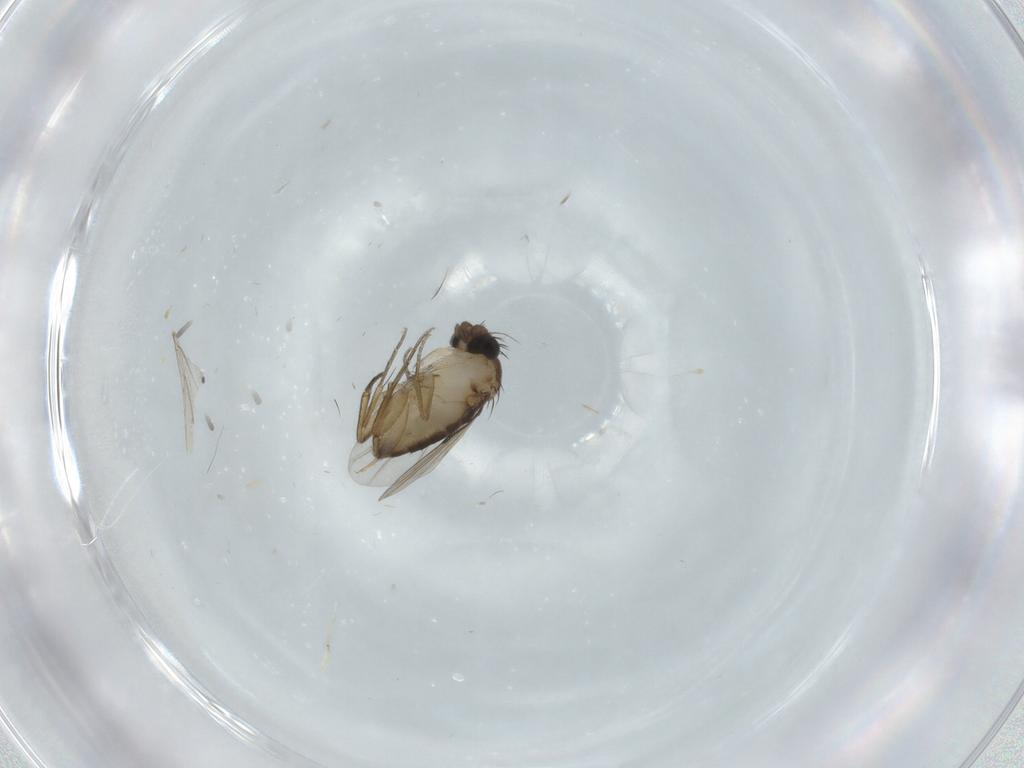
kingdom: Animalia
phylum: Arthropoda
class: Insecta
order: Diptera
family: Phoridae
